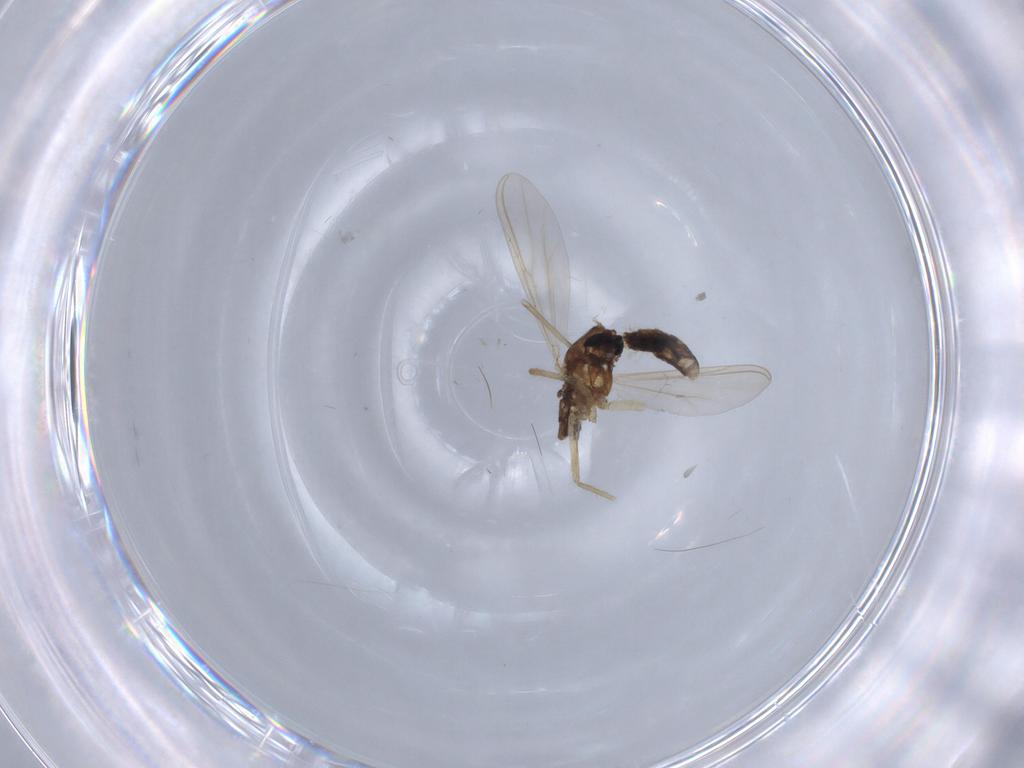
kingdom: Animalia
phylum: Arthropoda
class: Insecta
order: Diptera
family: Chironomidae
